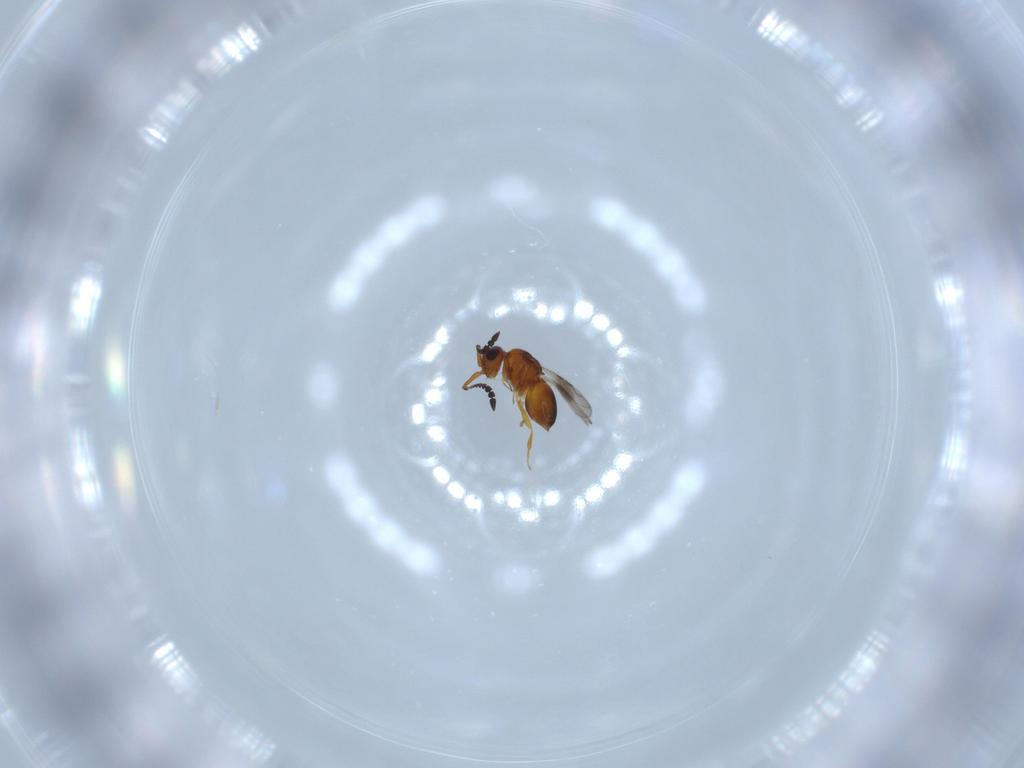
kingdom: Animalia
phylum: Arthropoda
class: Insecta
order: Hymenoptera
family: Ceraphronidae
